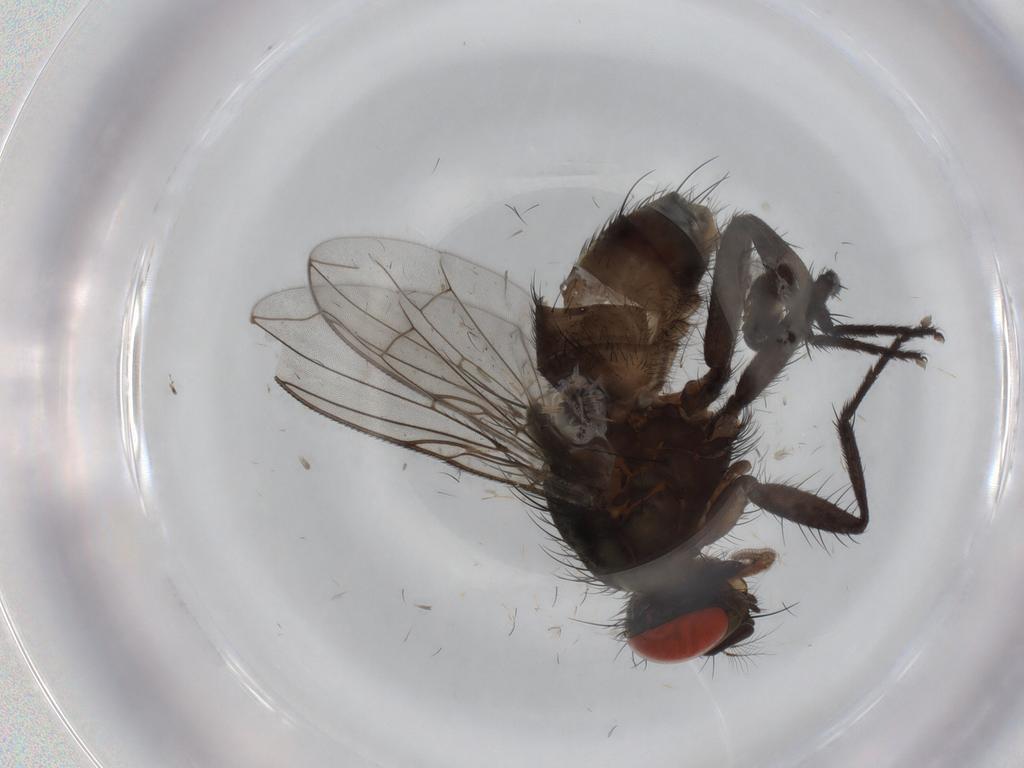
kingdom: Animalia
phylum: Arthropoda
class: Insecta
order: Diptera
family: Sarcophagidae
